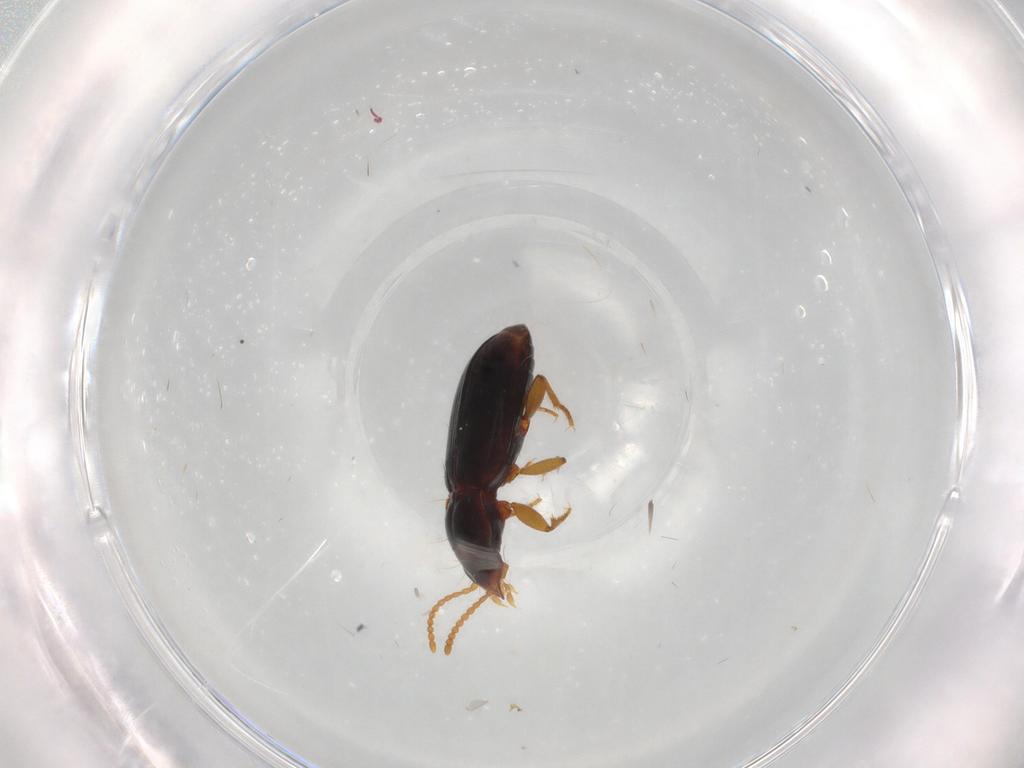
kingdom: Animalia
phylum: Arthropoda
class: Insecta
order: Coleoptera
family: Carabidae
